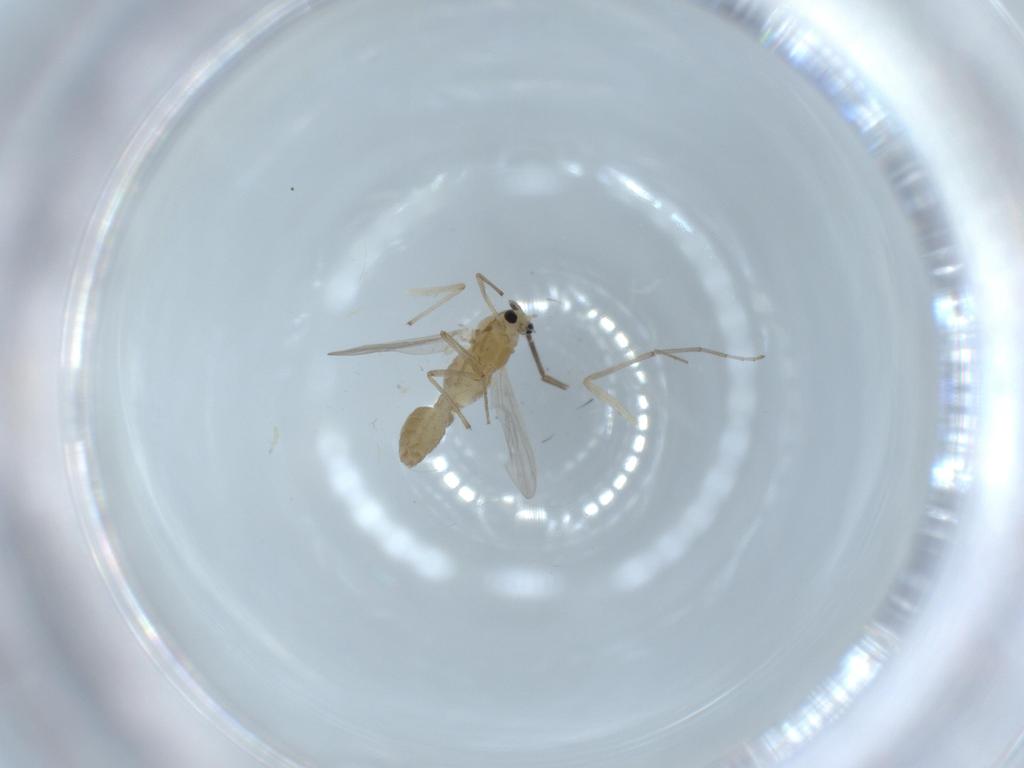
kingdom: Animalia
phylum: Arthropoda
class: Insecta
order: Diptera
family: Chironomidae
